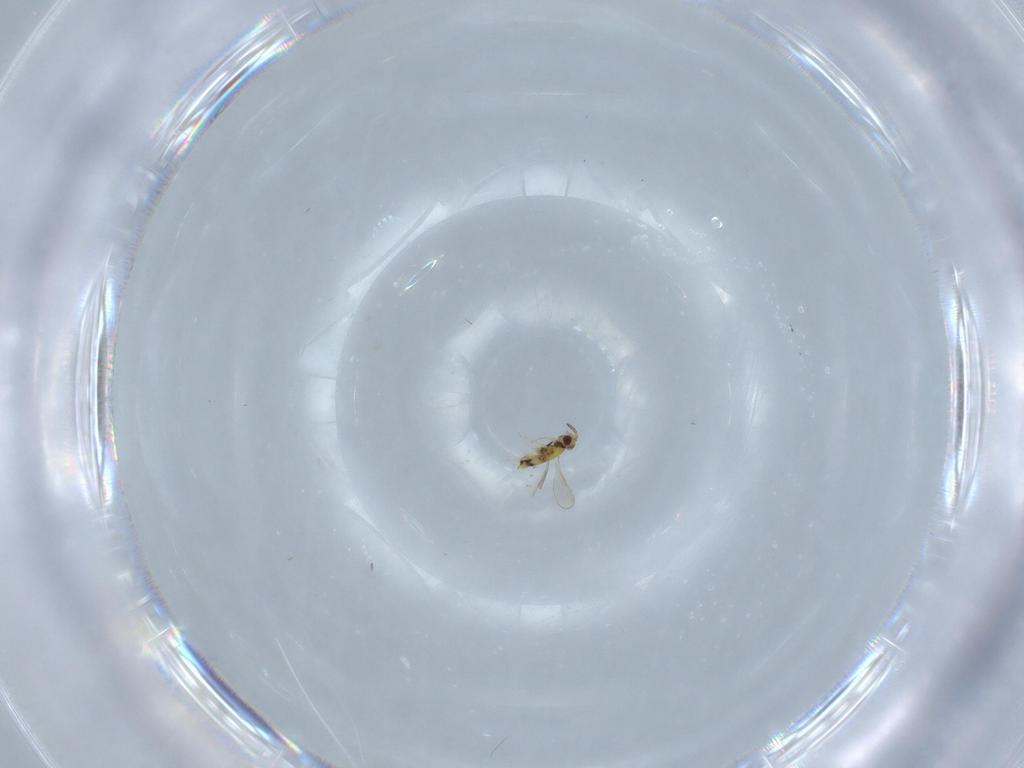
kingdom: Animalia
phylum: Arthropoda
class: Insecta
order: Hymenoptera
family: Aphelinidae
